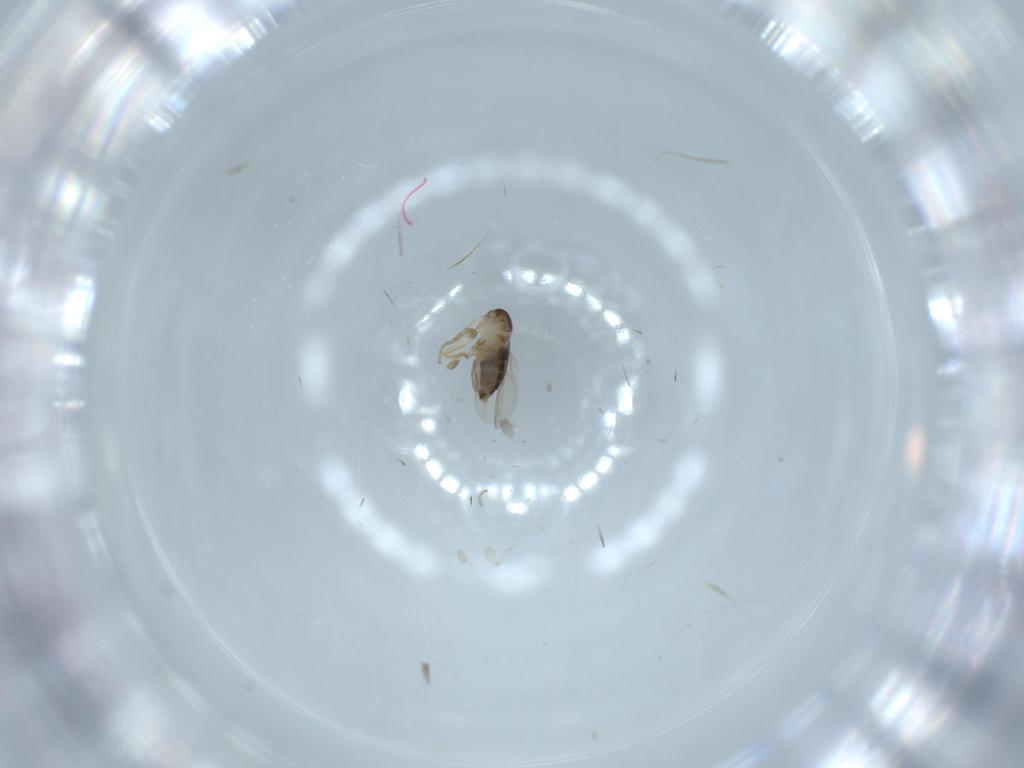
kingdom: Animalia
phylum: Arthropoda
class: Insecta
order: Diptera
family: Phoridae
